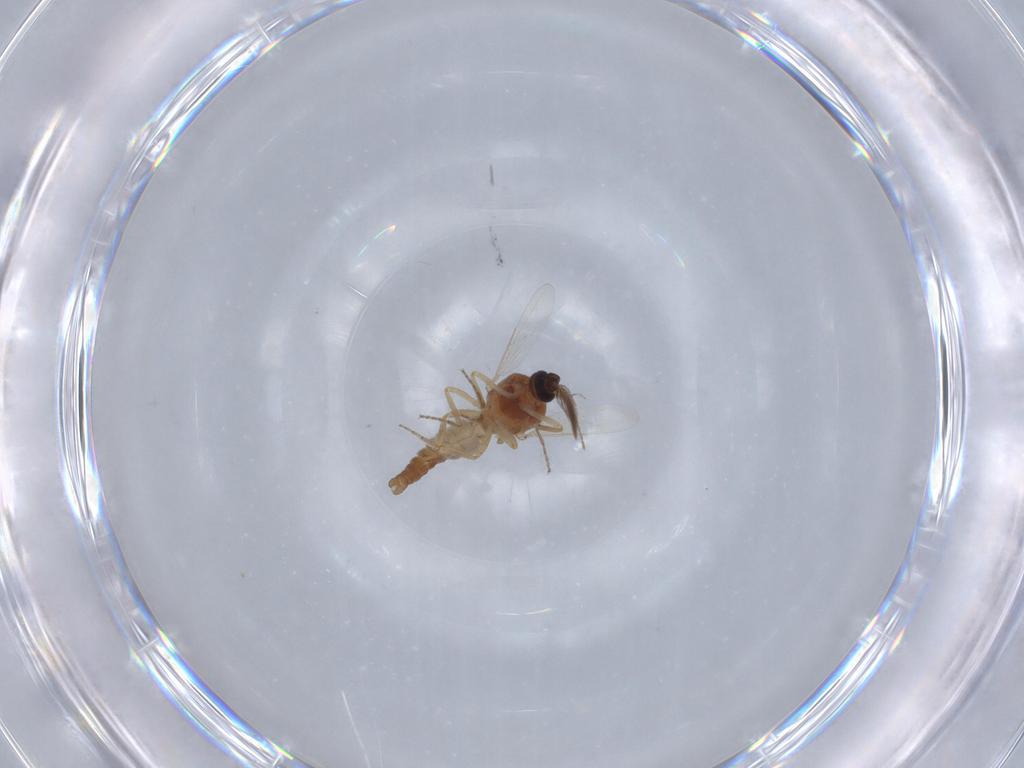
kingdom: Animalia
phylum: Arthropoda
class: Insecta
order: Diptera
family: Ceratopogonidae
